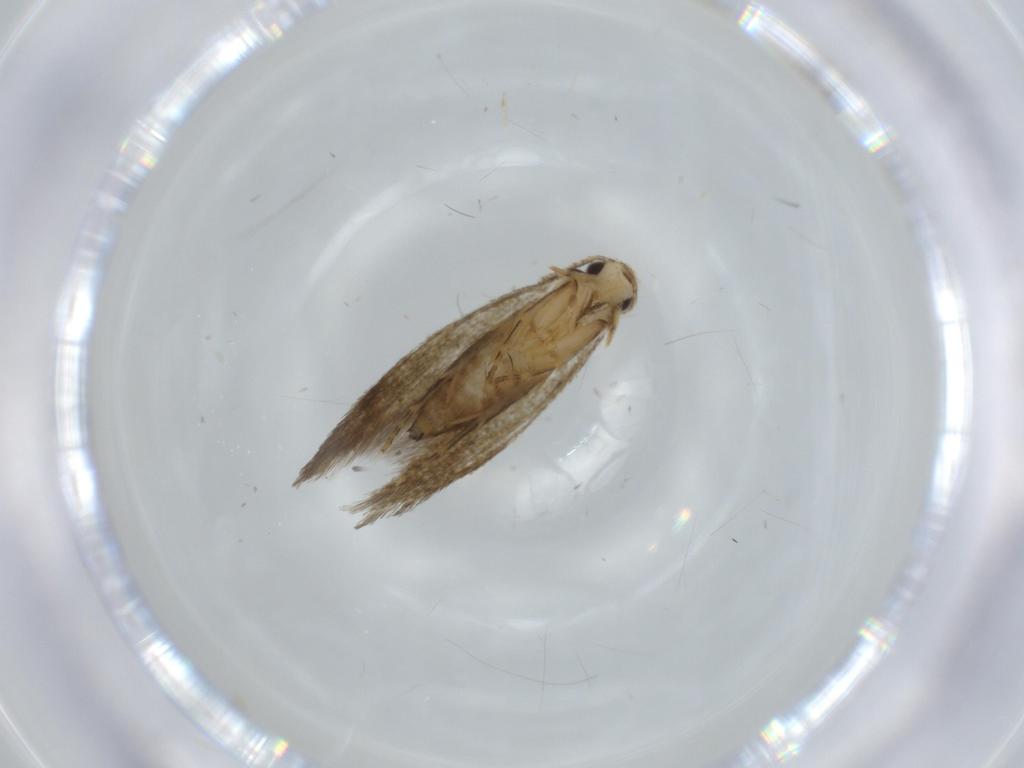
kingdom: Animalia
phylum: Arthropoda
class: Insecta
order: Lepidoptera
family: Tineidae
